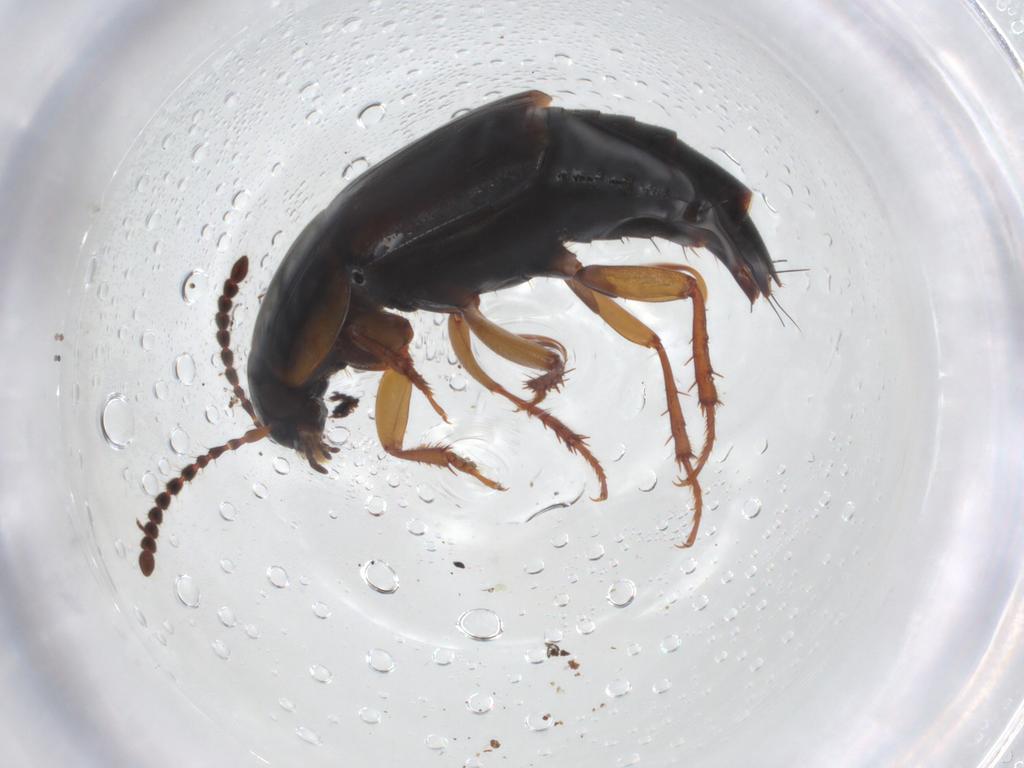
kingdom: Animalia
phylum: Arthropoda
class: Insecta
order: Coleoptera
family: Staphylinidae
